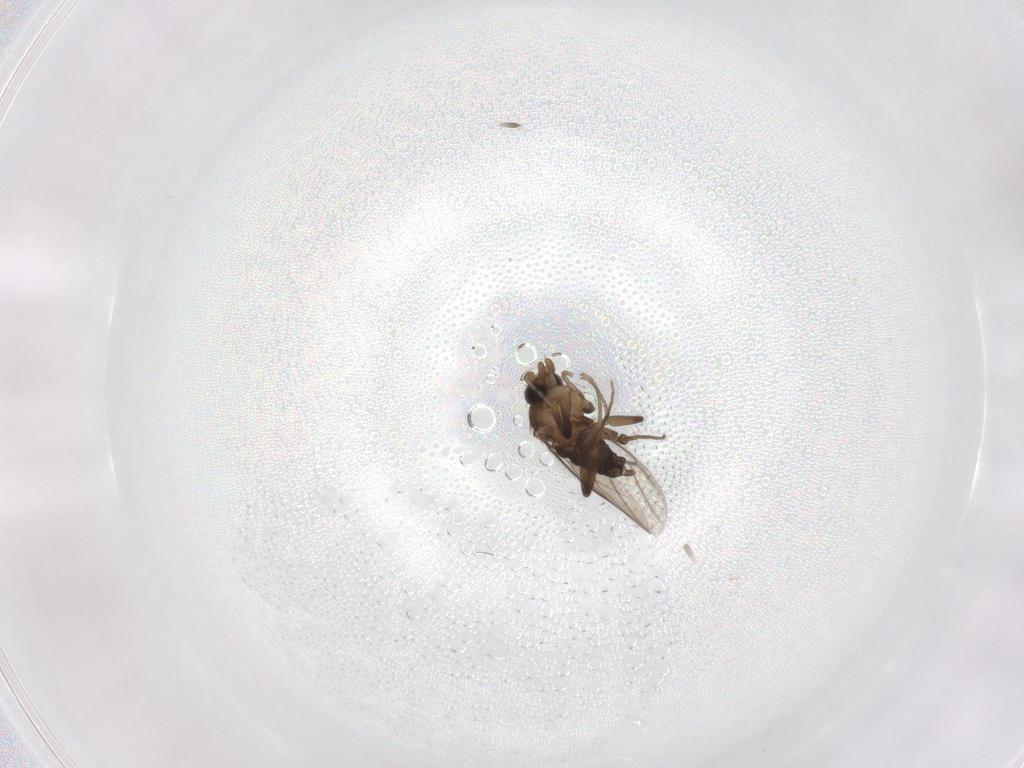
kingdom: Animalia
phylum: Arthropoda
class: Insecta
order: Diptera
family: Phoridae
